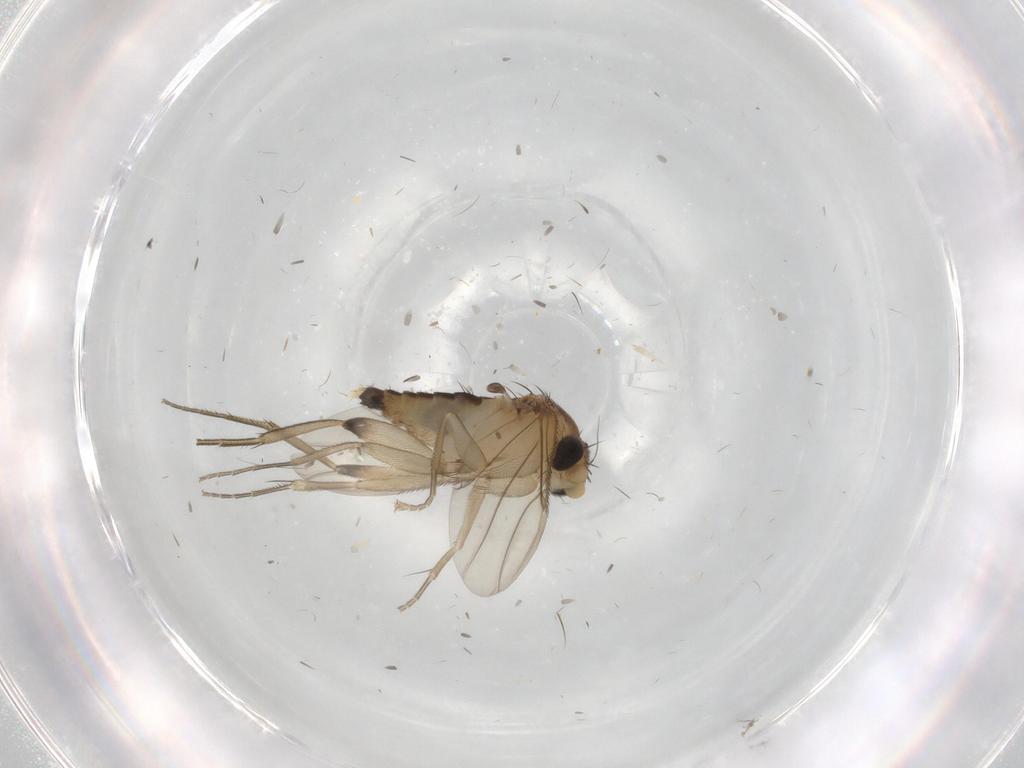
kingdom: Animalia
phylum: Arthropoda
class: Insecta
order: Diptera
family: Phoridae
